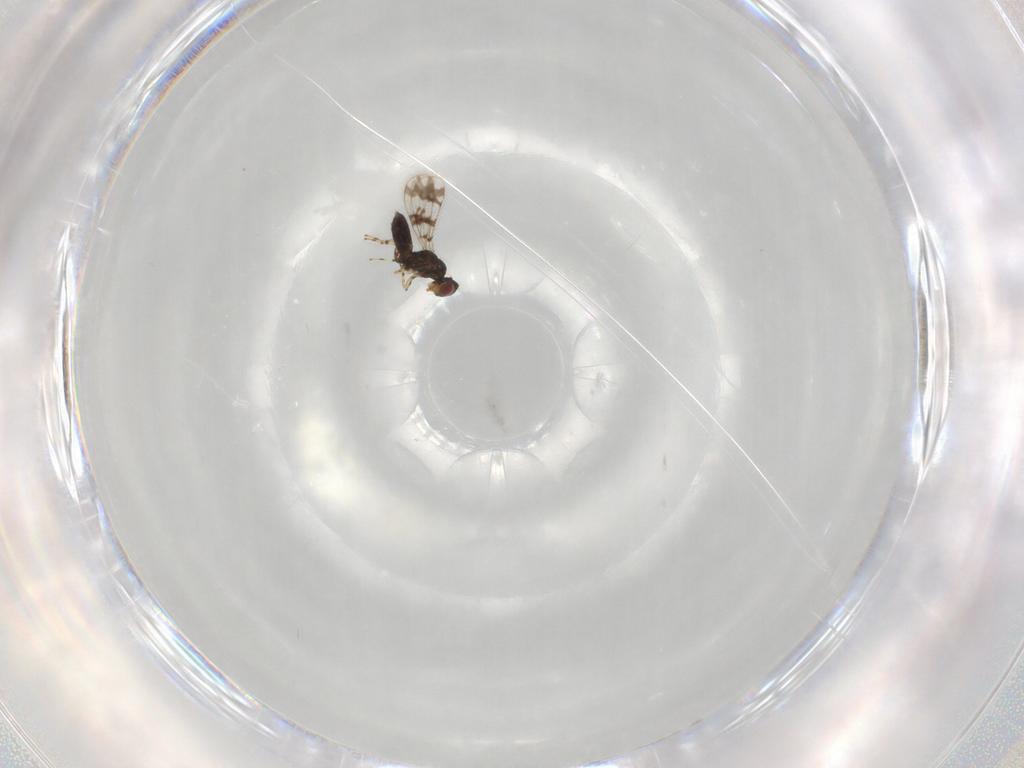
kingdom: Animalia
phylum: Arthropoda
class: Insecta
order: Hymenoptera
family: Eulophidae
